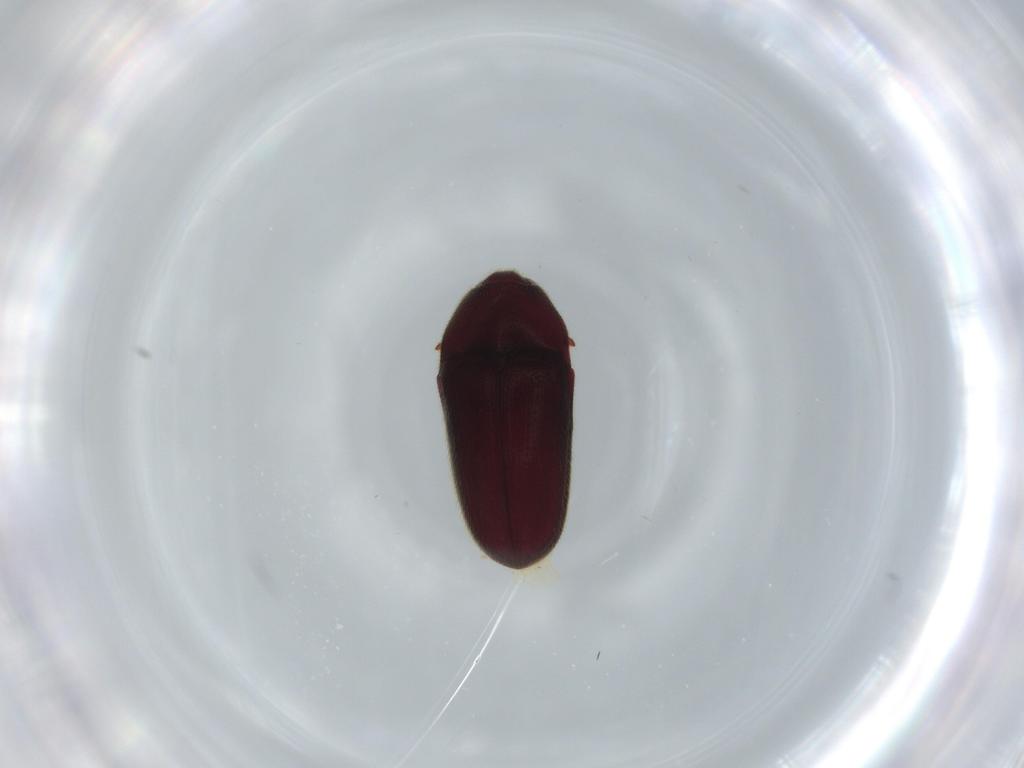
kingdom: Animalia
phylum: Arthropoda
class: Insecta
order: Coleoptera
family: Throscidae
